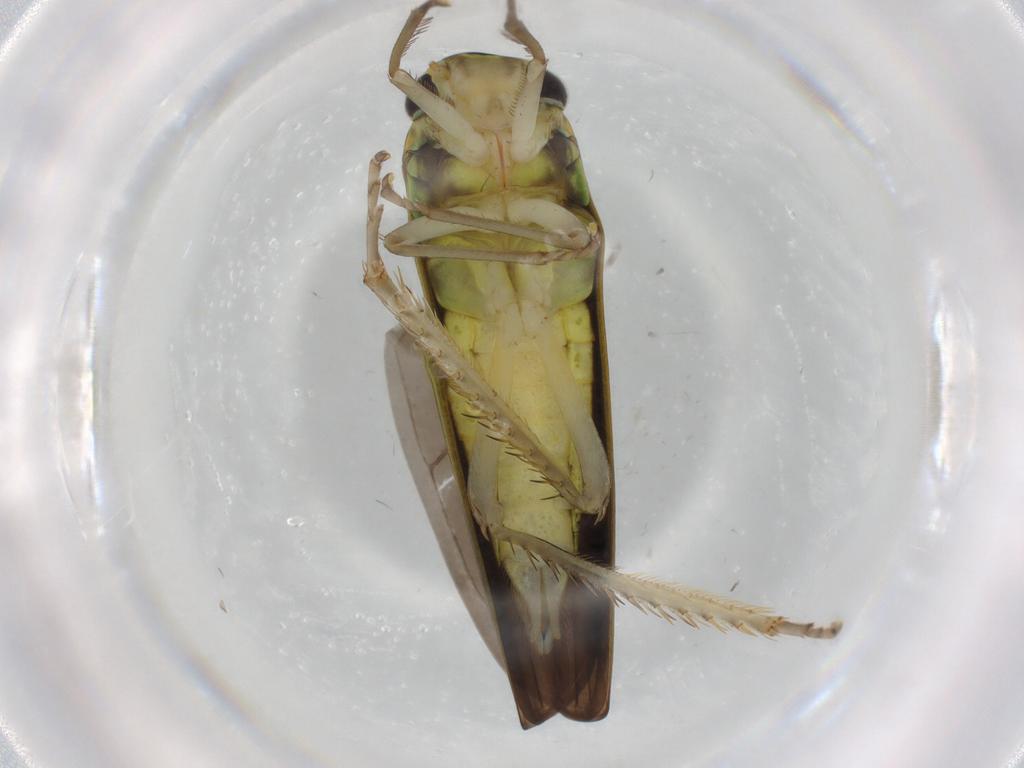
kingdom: Animalia
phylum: Arthropoda
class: Insecta
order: Hemiptera
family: Cicadellidae
